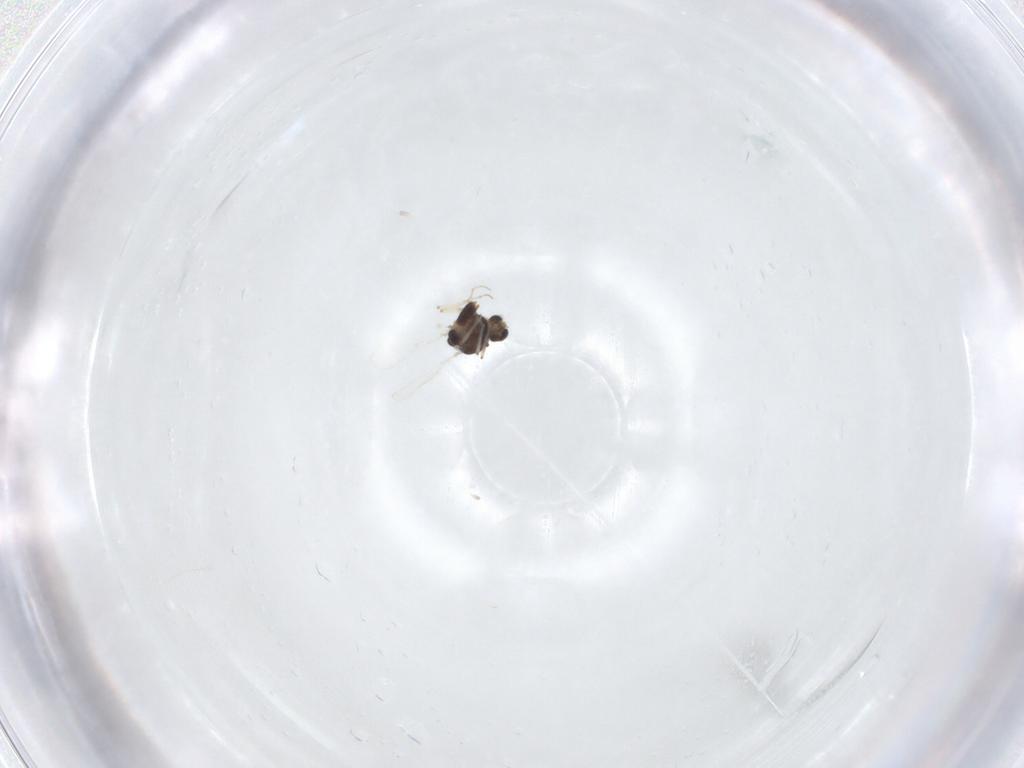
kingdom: Animalia
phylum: Arthropoda
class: Insecta
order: Diptera
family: Chironomidae
